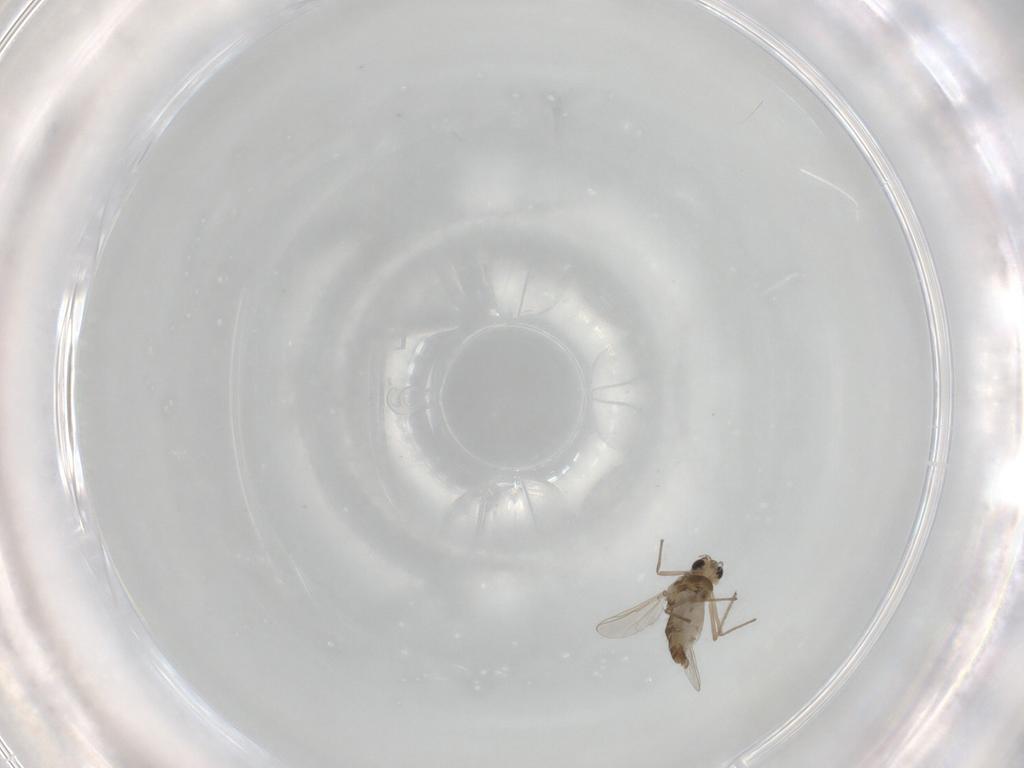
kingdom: Animalia
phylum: Arthropoda
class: Insecta
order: Diptera
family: Chironomidae
